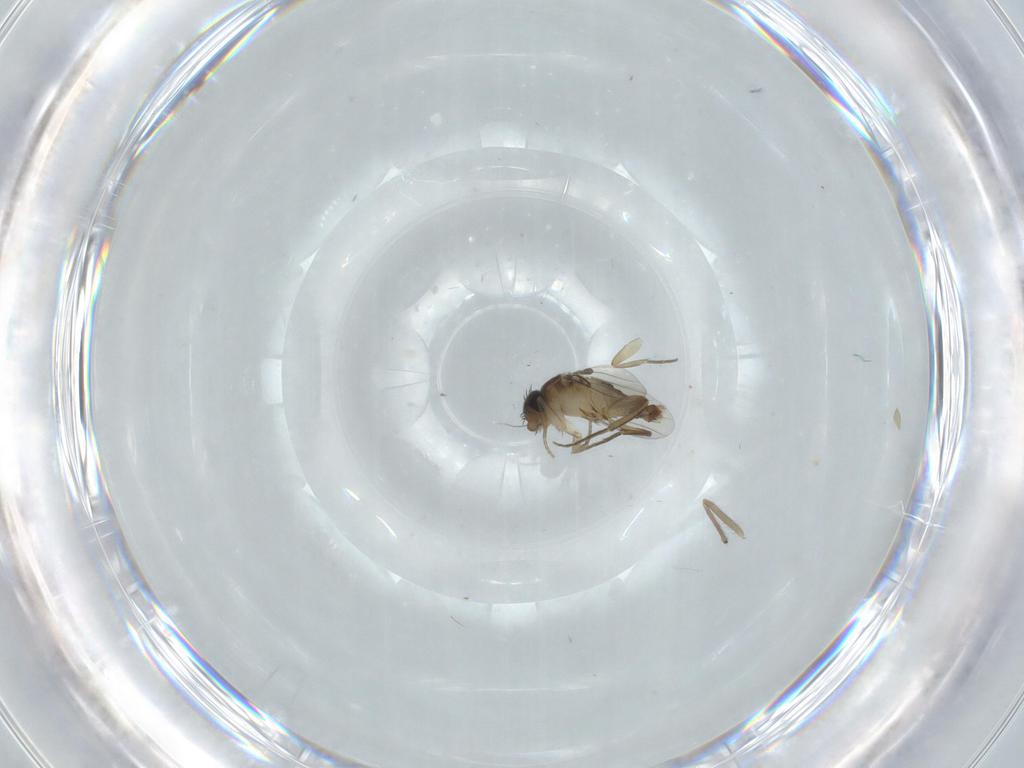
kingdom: Animalia
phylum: Arthropoda
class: Insecta
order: Diptera
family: Chironomidae
